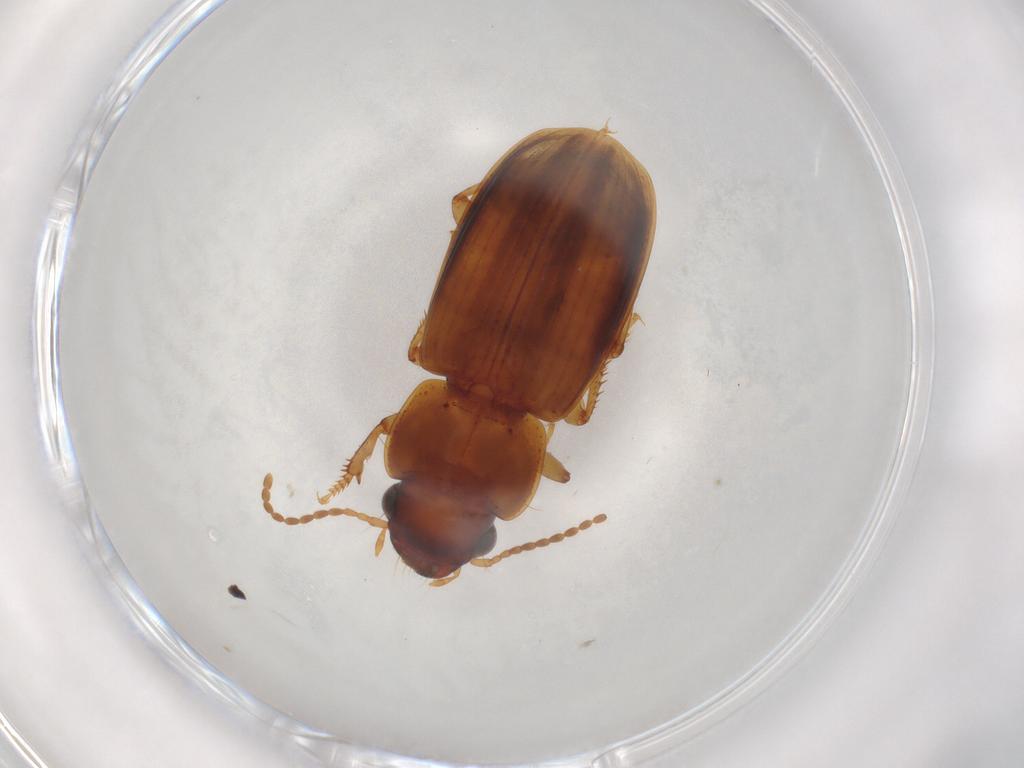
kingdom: Animalia
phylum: Arthropoda
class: Insecta
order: Coleoptera
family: Carabidae
